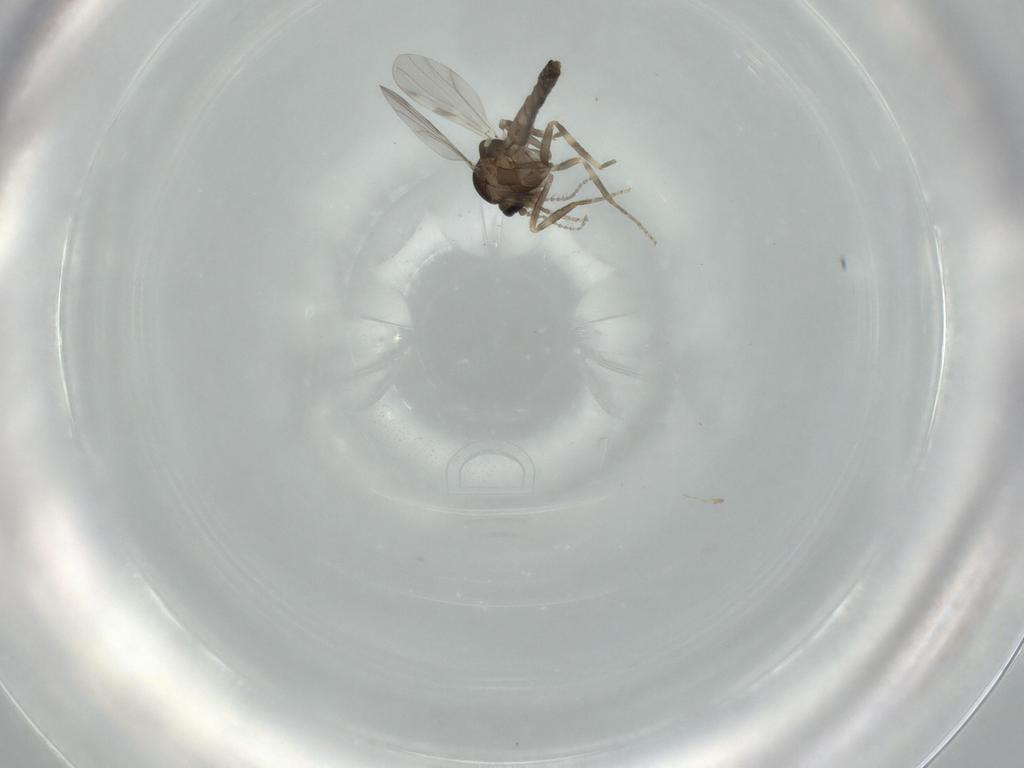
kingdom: Animalia
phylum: Arthropoda
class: Insecta
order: Diptera
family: Ceratopogonidae
